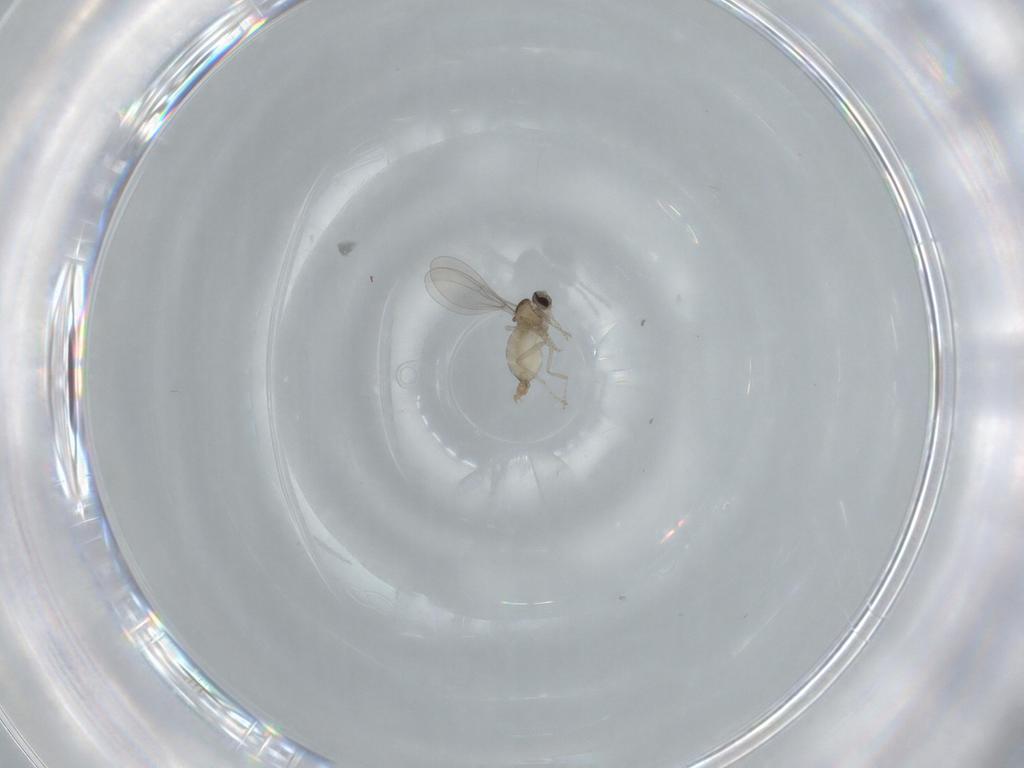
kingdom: Animalia
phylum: Arthropoda
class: Insecta
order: Diptera
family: Cecidomyiidae
